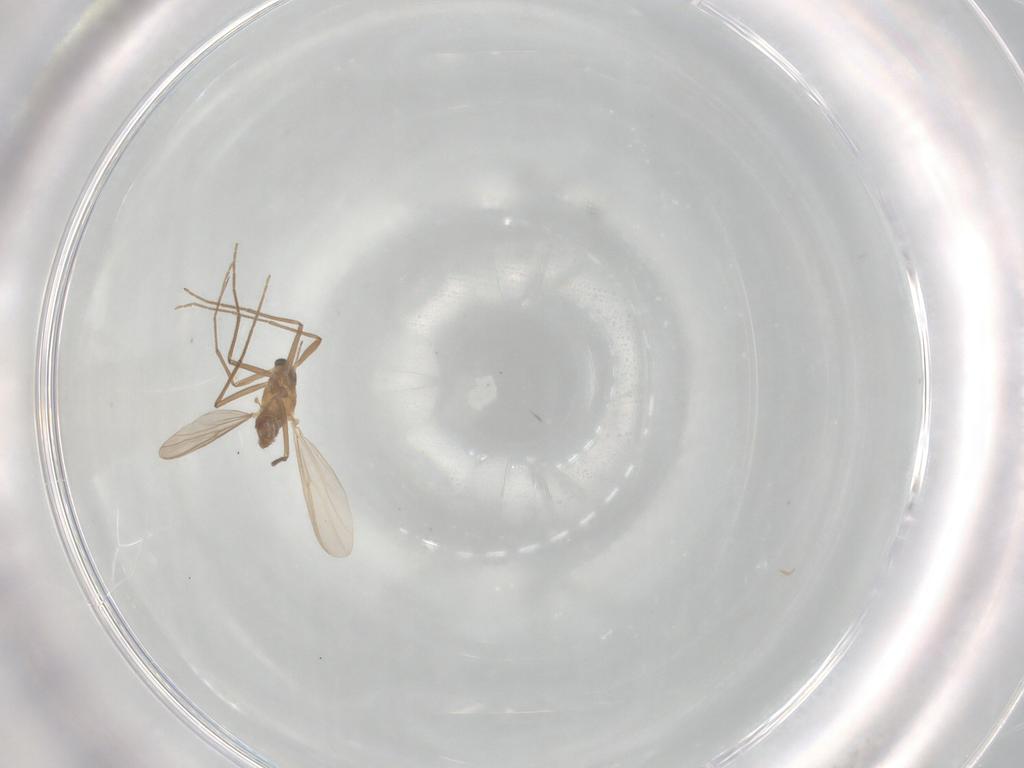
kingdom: Animalia
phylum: Arthropoda
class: Insecta
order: Diptera
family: Chironomidae
